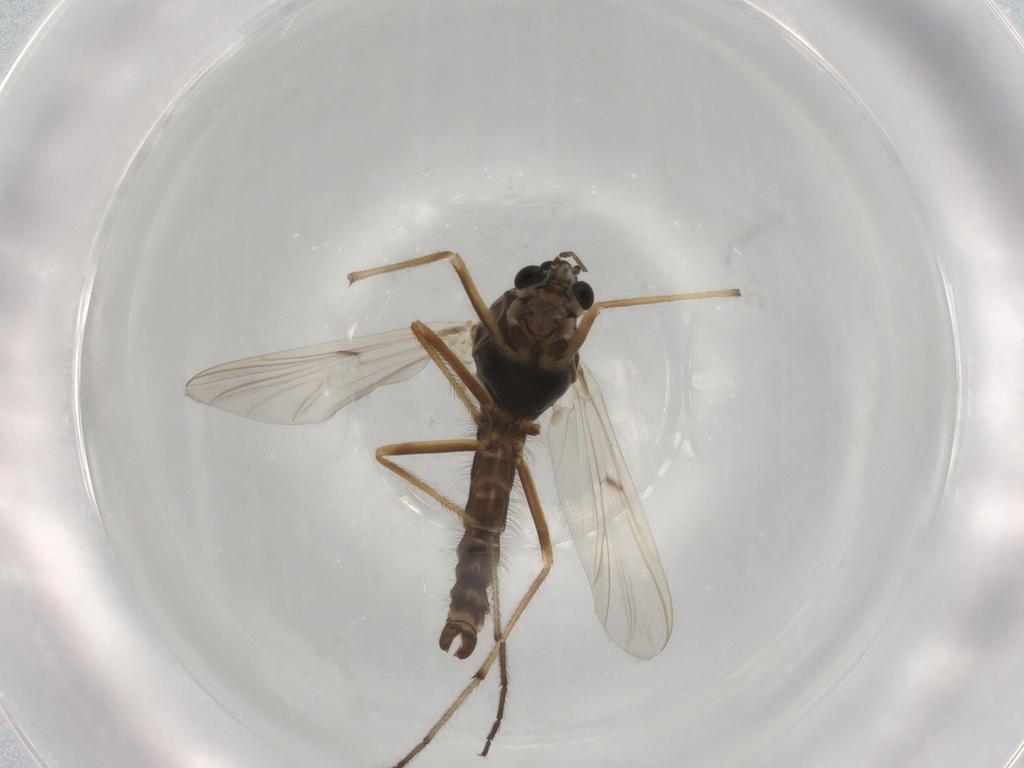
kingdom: Animalia
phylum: Arthropoda
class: Insecta
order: Diptera
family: Chironomidae
